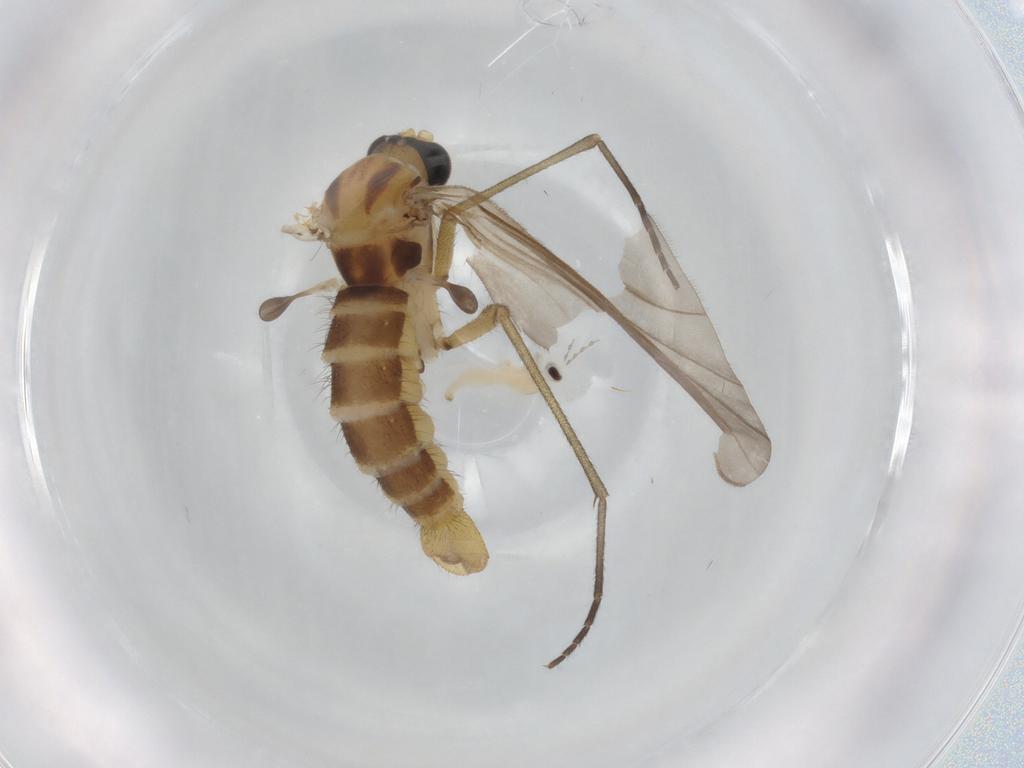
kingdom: Animalia
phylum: Arthropoda
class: Insecta
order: Diptera
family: Sciaridae
